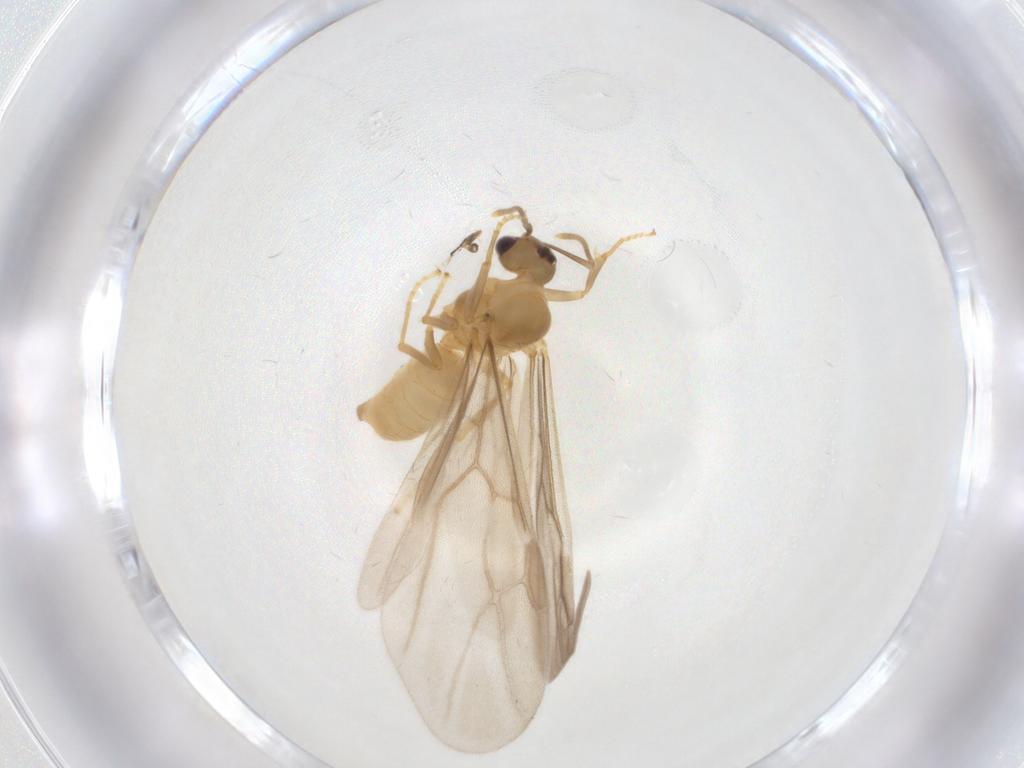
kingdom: Animalia
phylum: Arthropoda
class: Insecta
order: Hymenoptera
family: Formicidae
